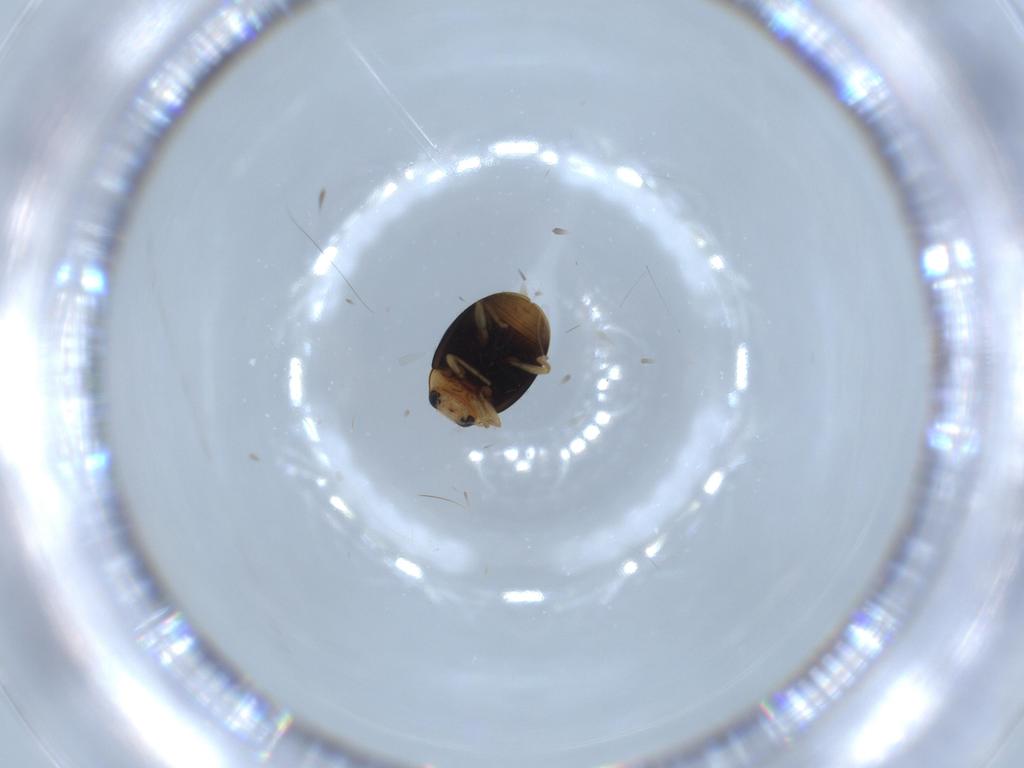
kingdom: Animalia
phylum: Arthropoda
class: Insecta
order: Coleoptera
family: Coccinellidae
